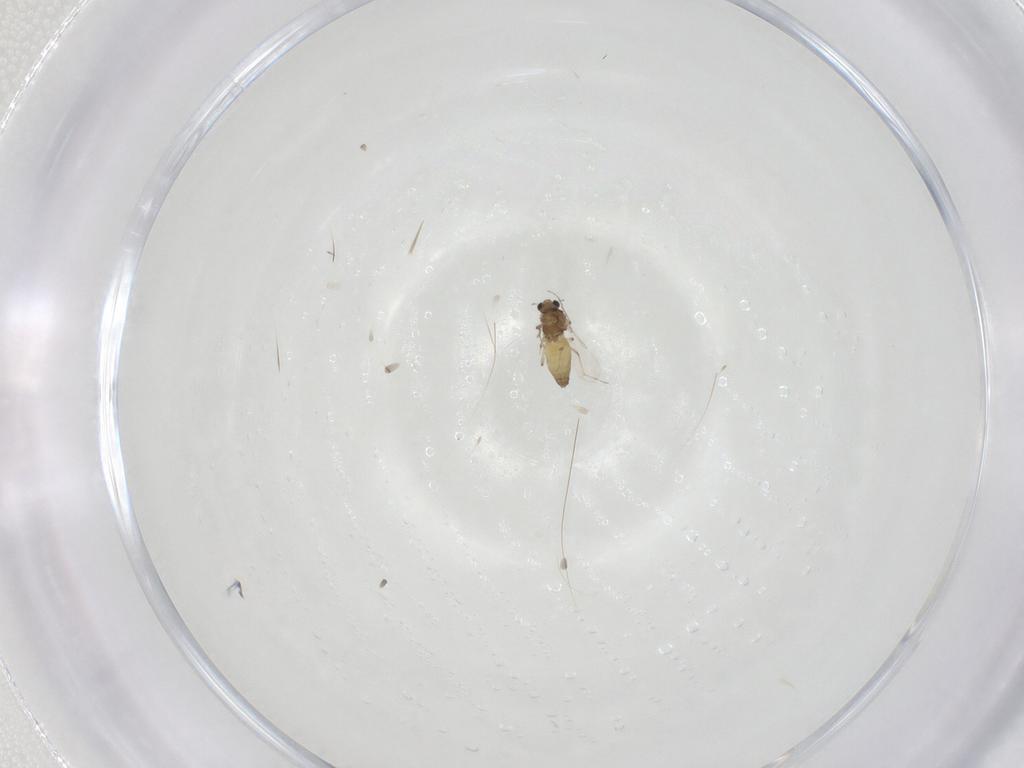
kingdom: Animalia
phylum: Arthropoda
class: Insecta
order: Diptera
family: Chironomidae
